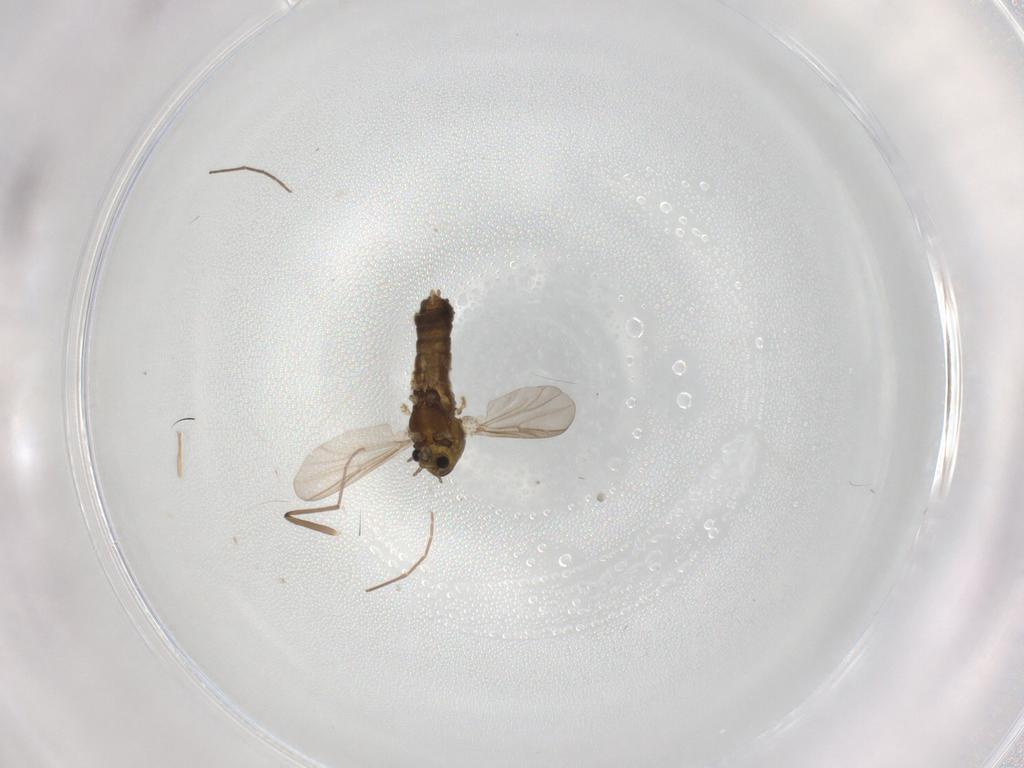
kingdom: Animalia
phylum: Arthropoda
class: Insecta
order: Diptera
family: Chironomidae
